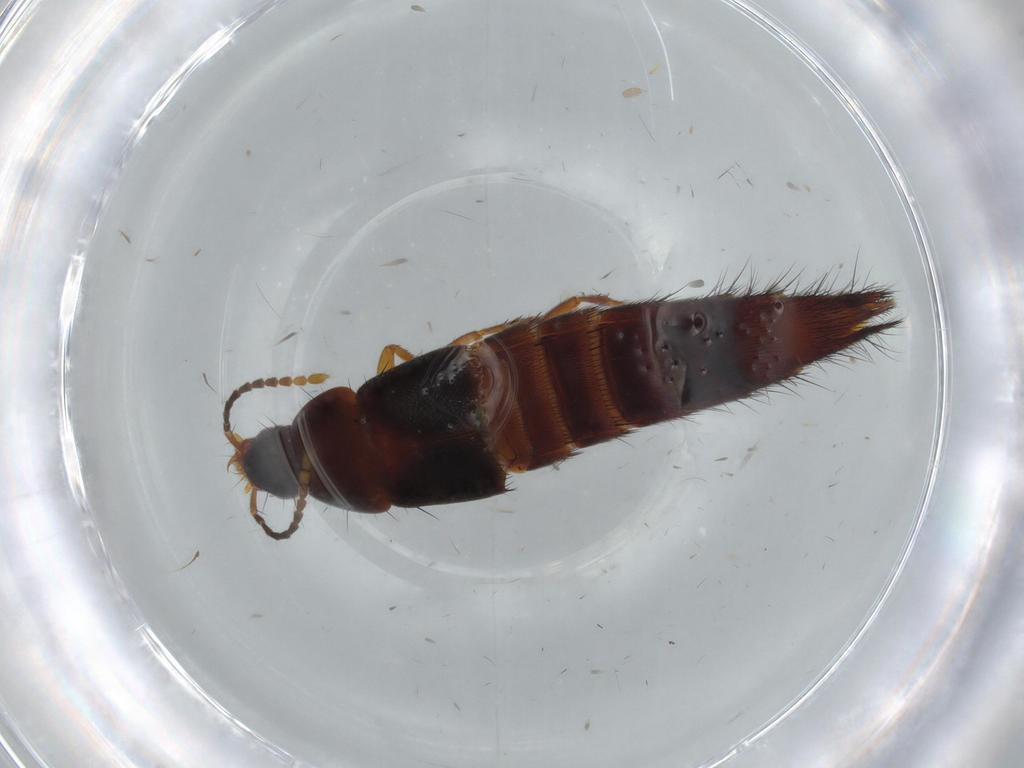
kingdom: Animalia
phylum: Arthropoda
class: Insecta
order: Coleoptera
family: Staphylinidae
